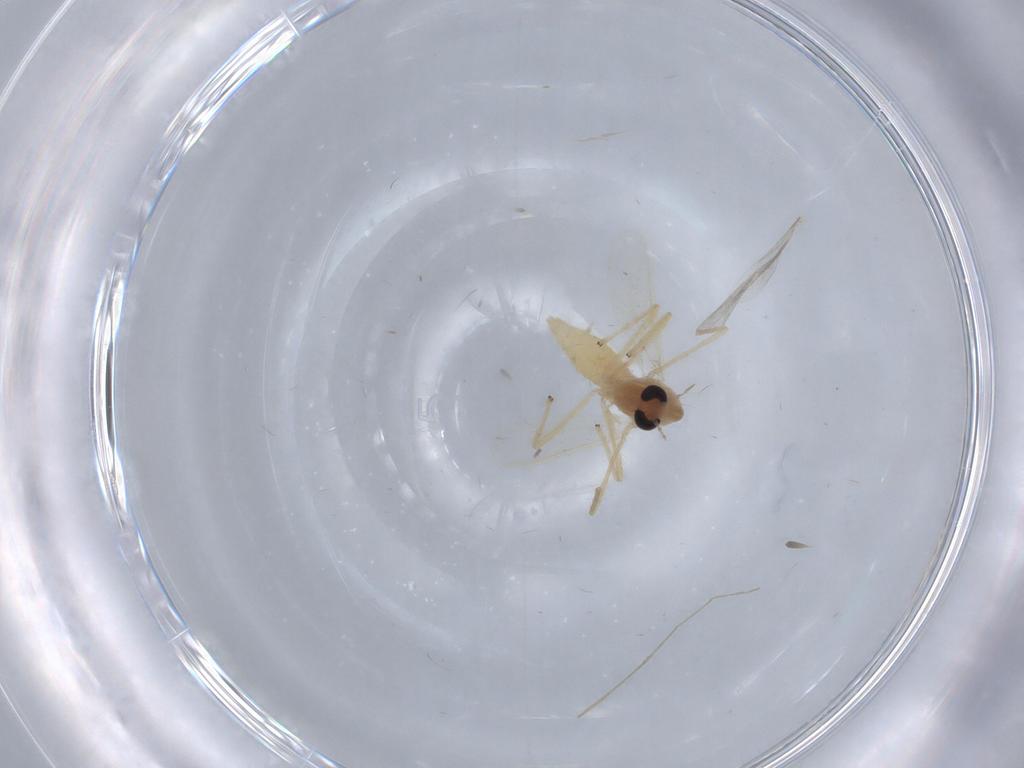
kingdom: Animalia
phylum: Arthropoda
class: Insecta
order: Diptera
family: Chironomidae
